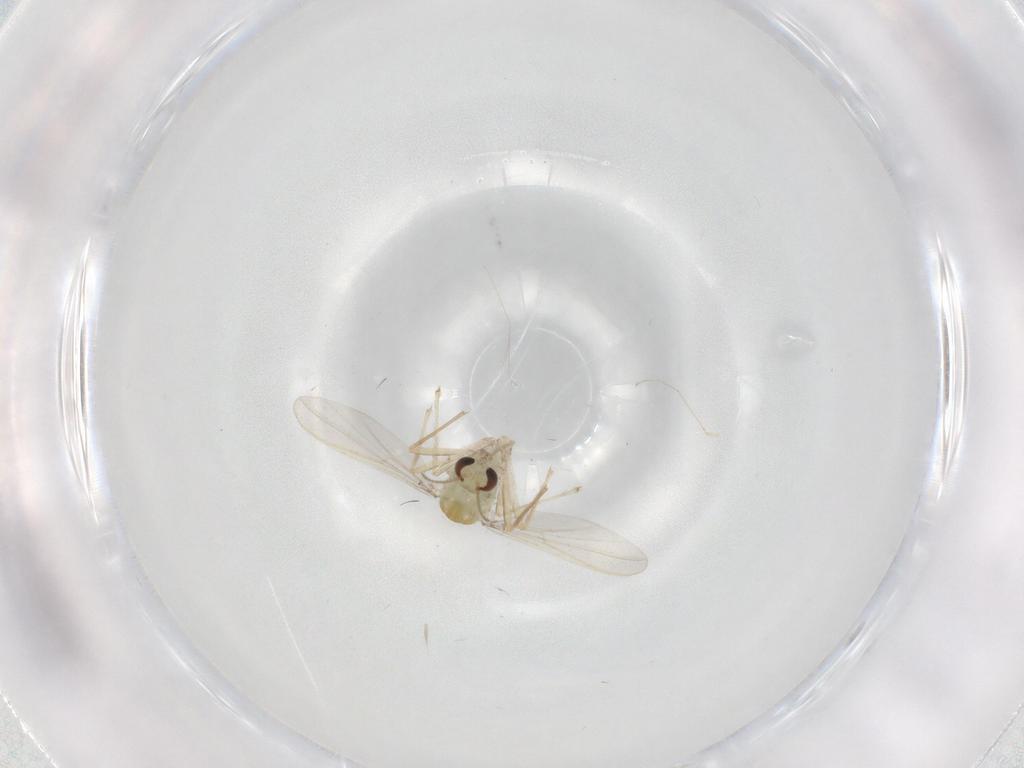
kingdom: Animalia
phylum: Arthropoda
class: Insecta
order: Diptera
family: Chironomidae
